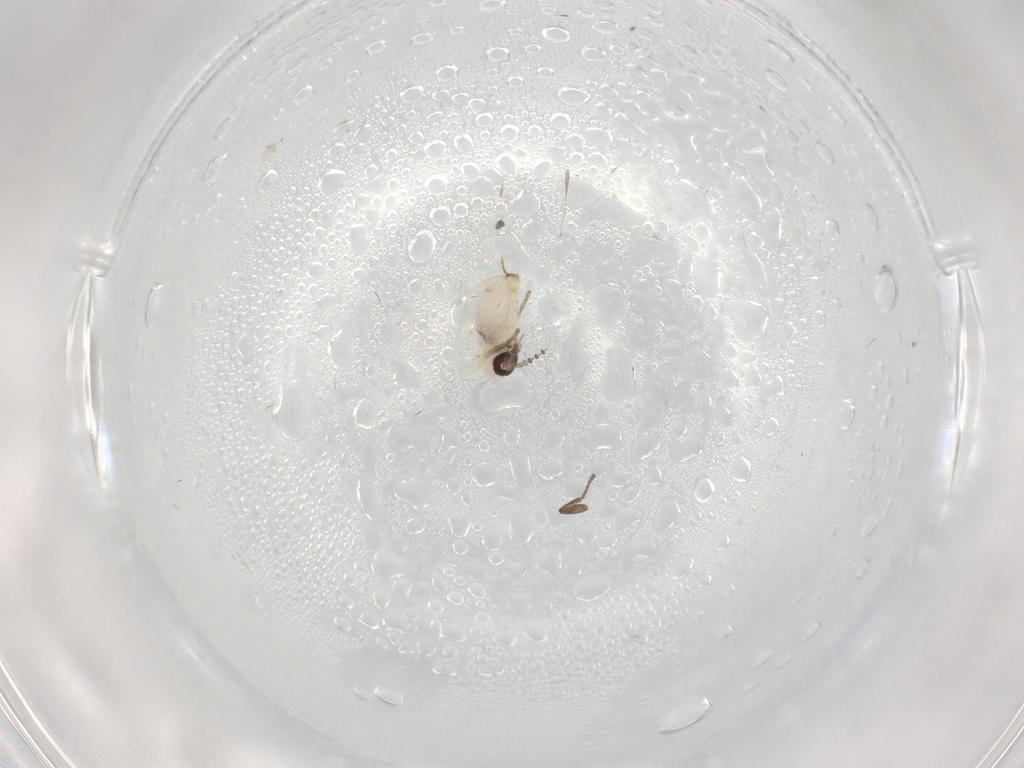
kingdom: Animalia
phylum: Arthropoda
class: Insecta
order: Diptera
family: Psychodidae
